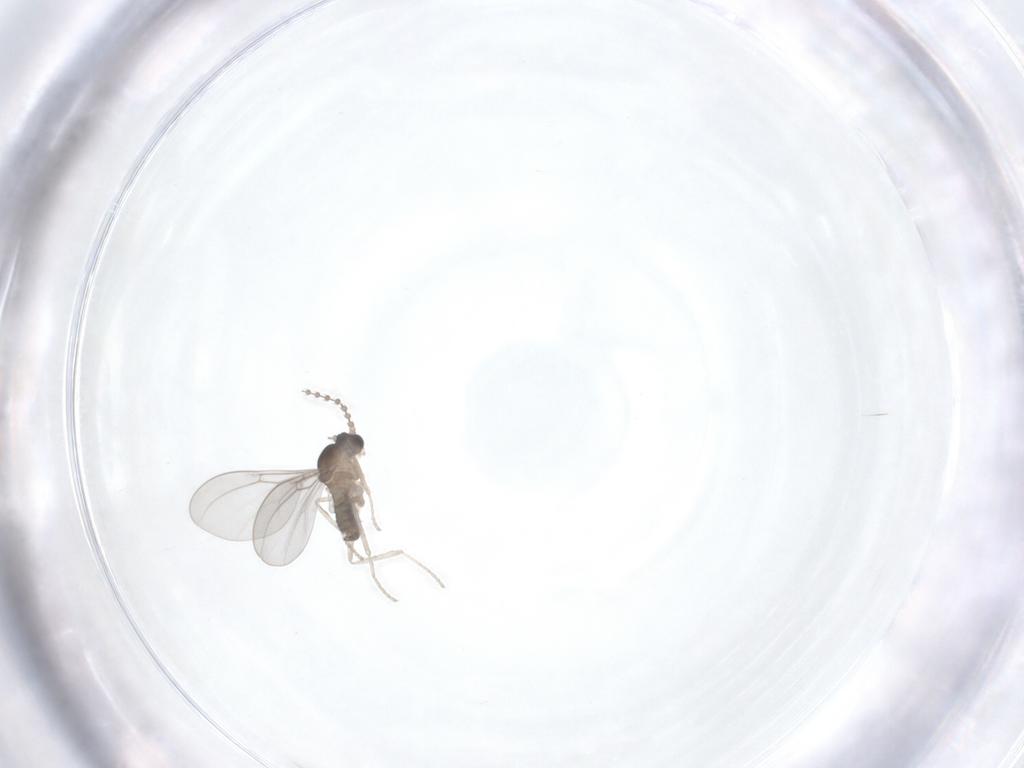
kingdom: Animalia
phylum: Arthropoda
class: Insecta
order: Diptera
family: Cecidomyiidae
